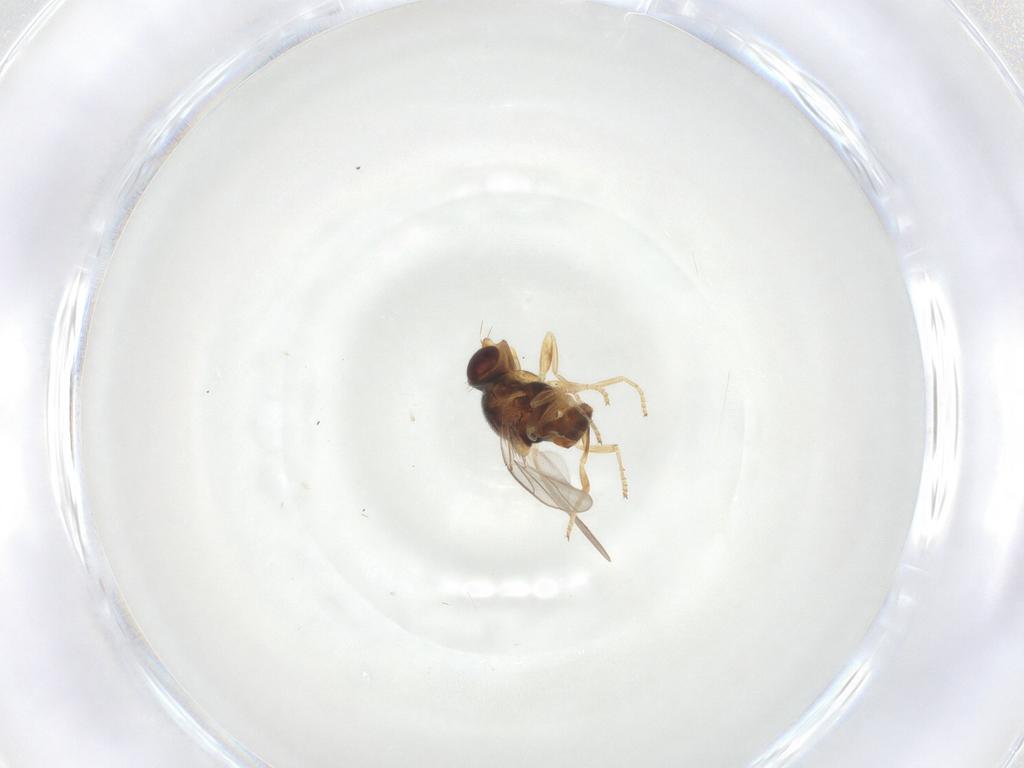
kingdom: Animalia
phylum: Arthropoda
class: Insecta
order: Diptera
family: Chloropidae
